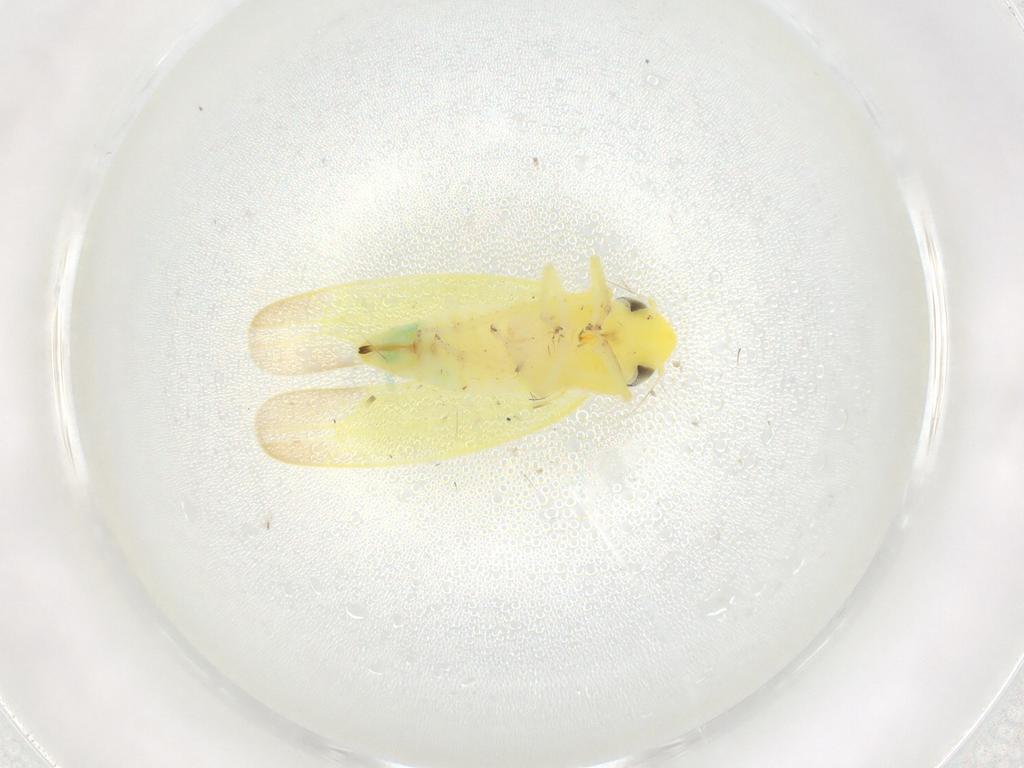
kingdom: Animalia
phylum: Arthropoda
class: Insecta
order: Hemiptera
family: Cicadellidae
